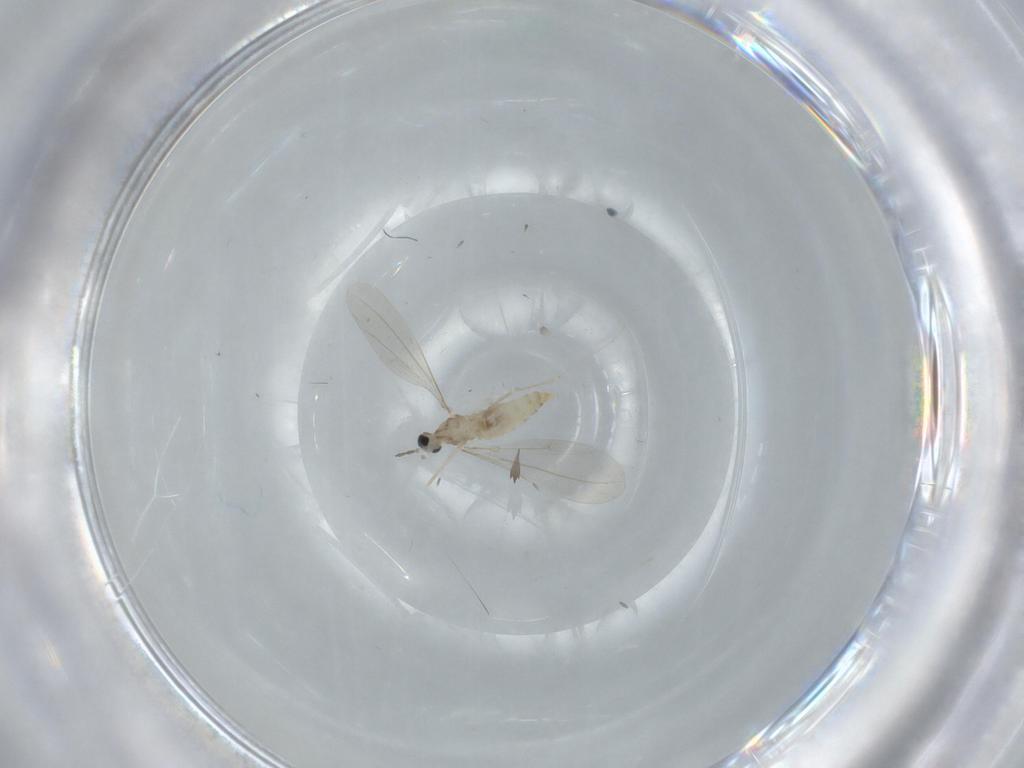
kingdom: Animalia
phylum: Arthropoda
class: Insecta
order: Diptera
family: Cecidomyiidae
